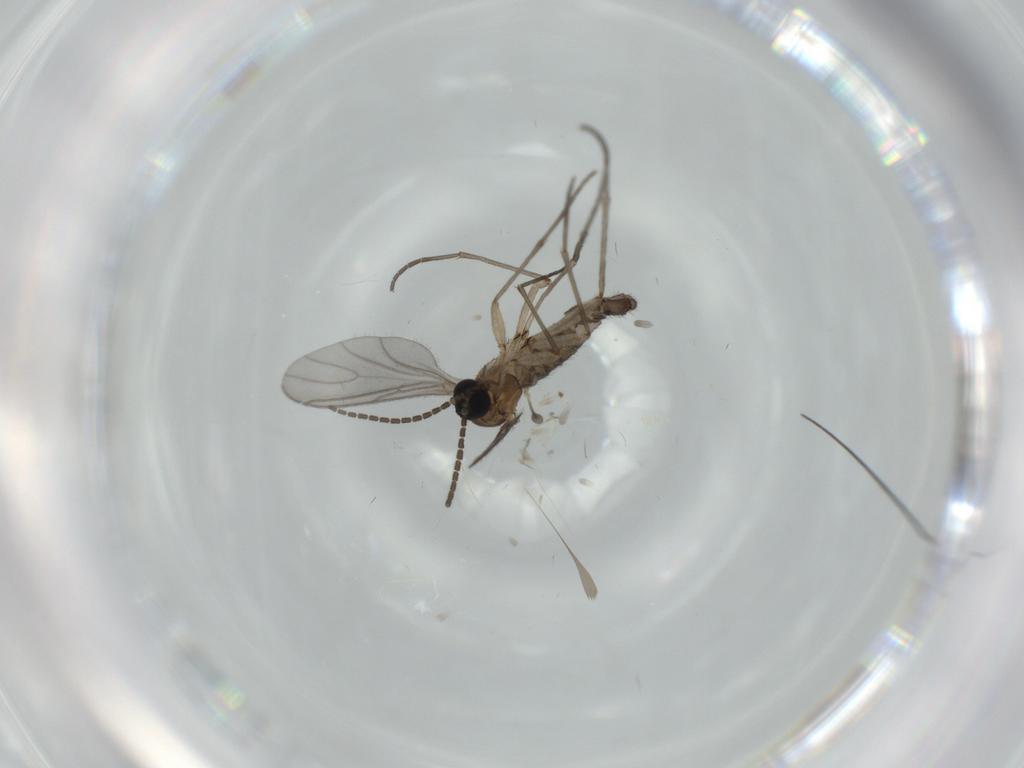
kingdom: Animalia
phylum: Arthropoda
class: Insecta
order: Diptera
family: Sciaridae
